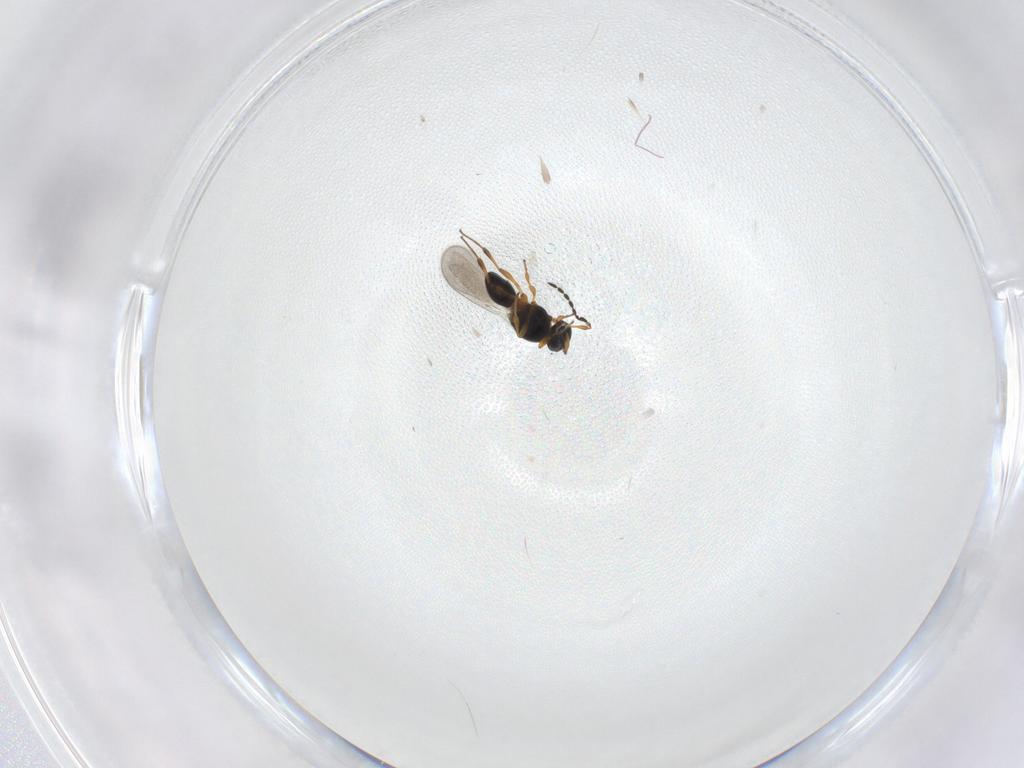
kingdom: Animalia
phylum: Arthropoda
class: Insecta
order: Hymenoptera
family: Platygastridae
